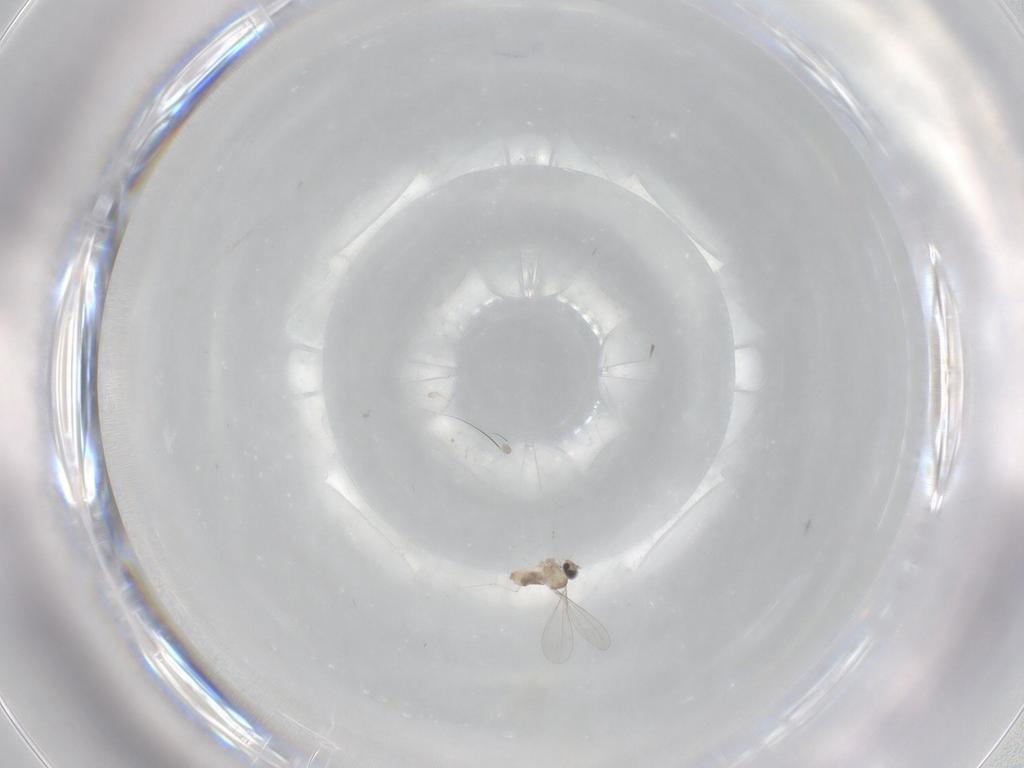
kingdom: Animalia
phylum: Arthropoda
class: Insecta
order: Diptera
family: Cecidomyiidae
